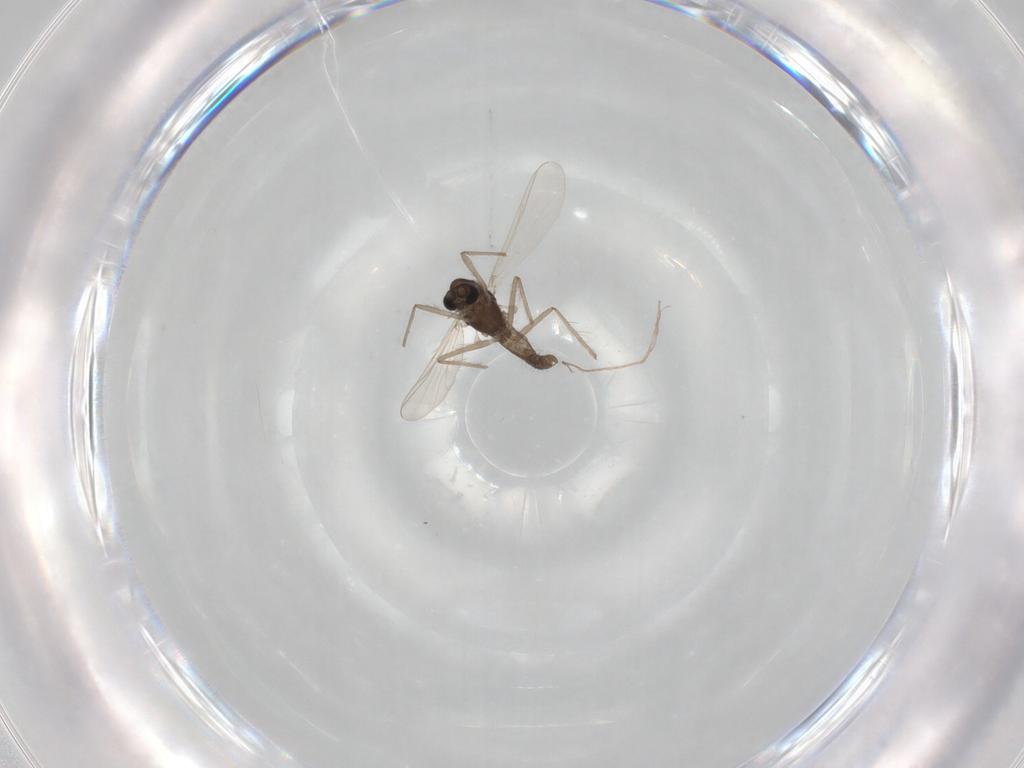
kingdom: Animalia
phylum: Arthropoda
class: Insecta
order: Diptera
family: Chironomidae
